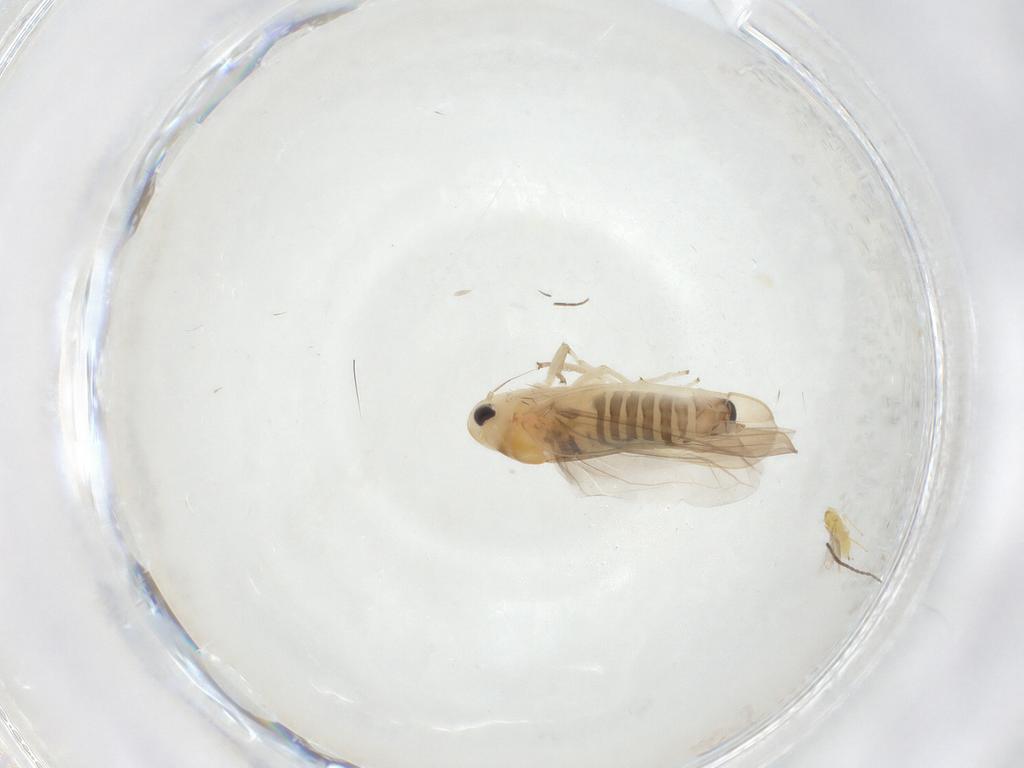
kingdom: Animalia
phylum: Arthropoda
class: Insecta
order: Hemiptera
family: Cicadellidae
